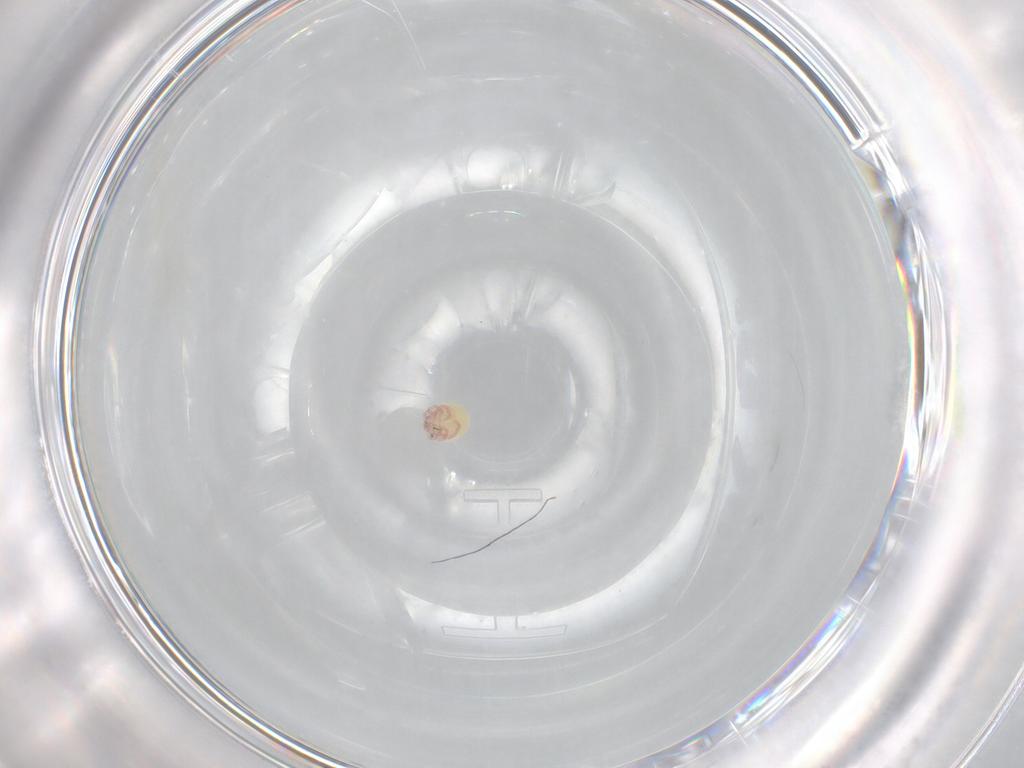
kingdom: Animalia
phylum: Arthropoda
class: Arachnida
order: Trombidiformes
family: Lebertiidae
